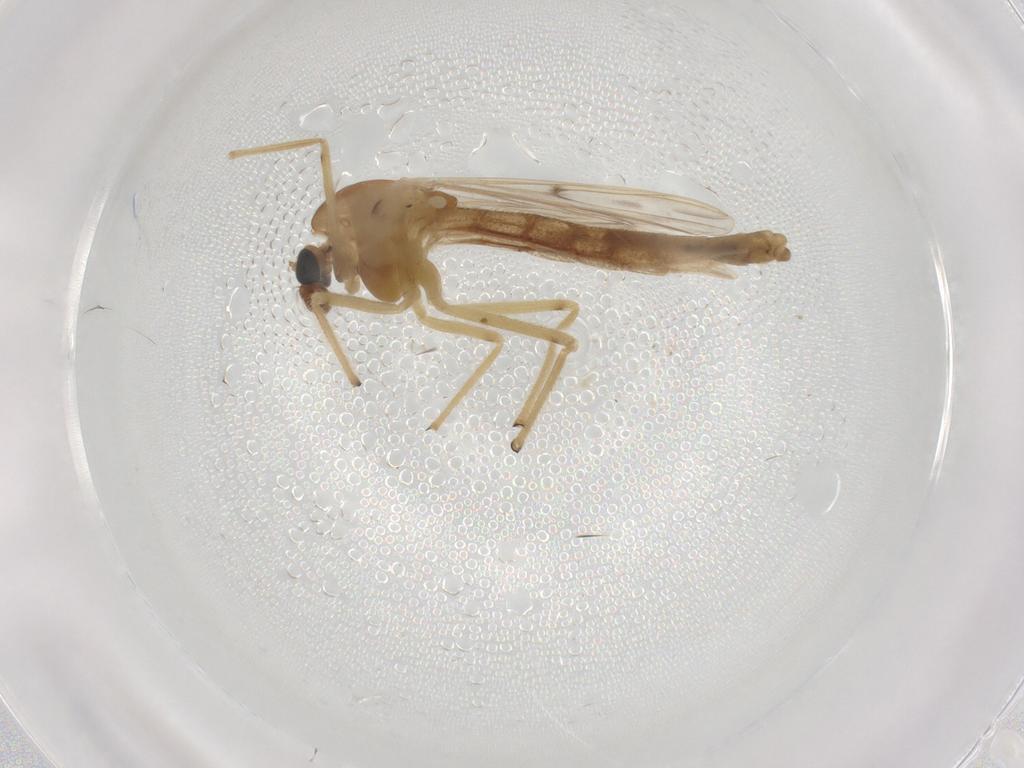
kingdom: Animalia
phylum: Arthropoda
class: Insecta
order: Diptera
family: Chironomidae
